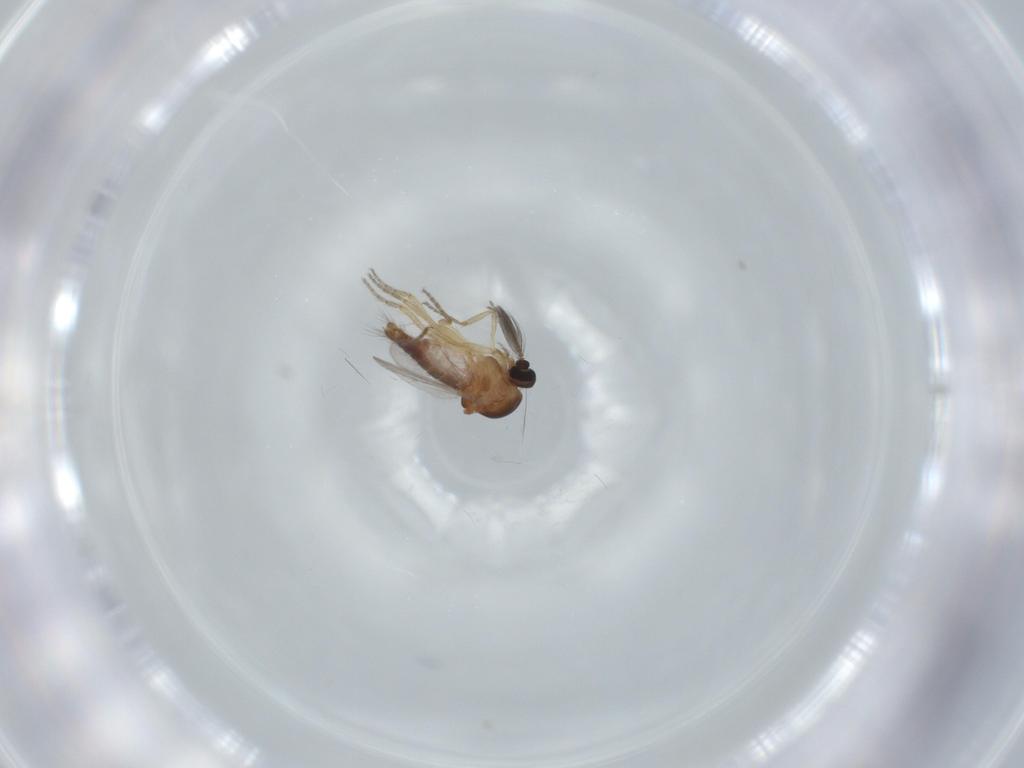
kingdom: Animalia
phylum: Arthropoda
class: Insecta
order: Diptera
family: Ceratopogonidae
